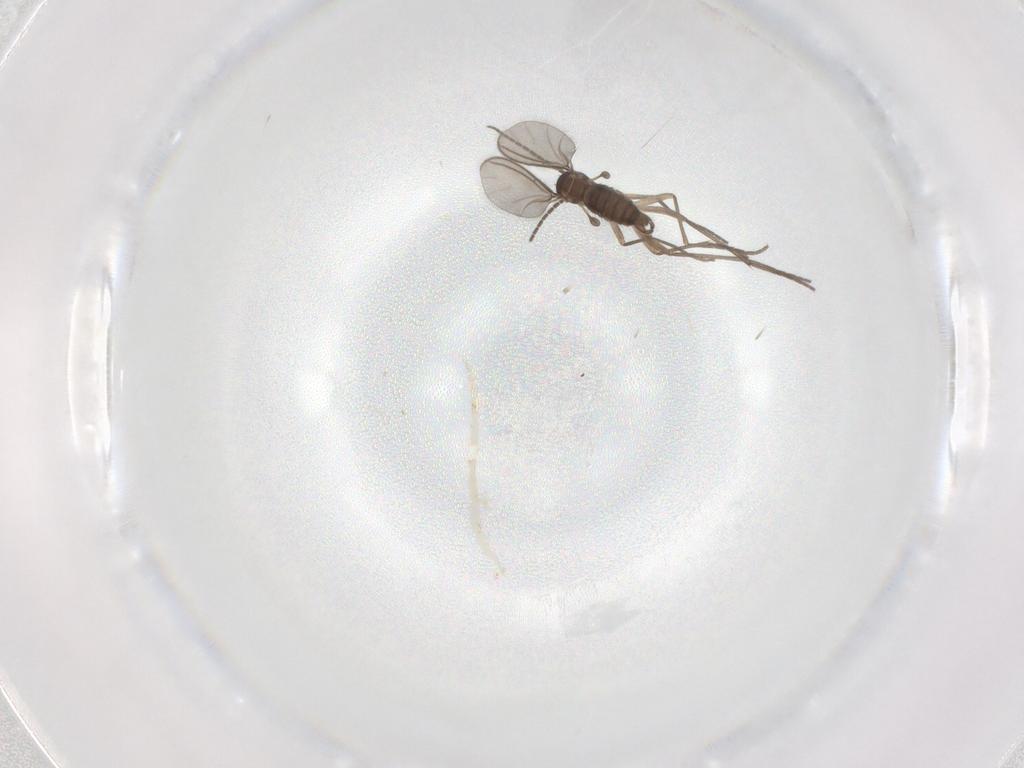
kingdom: Animalia
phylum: Arthropoda
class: Insecta
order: Diptera
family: Sciaridae
